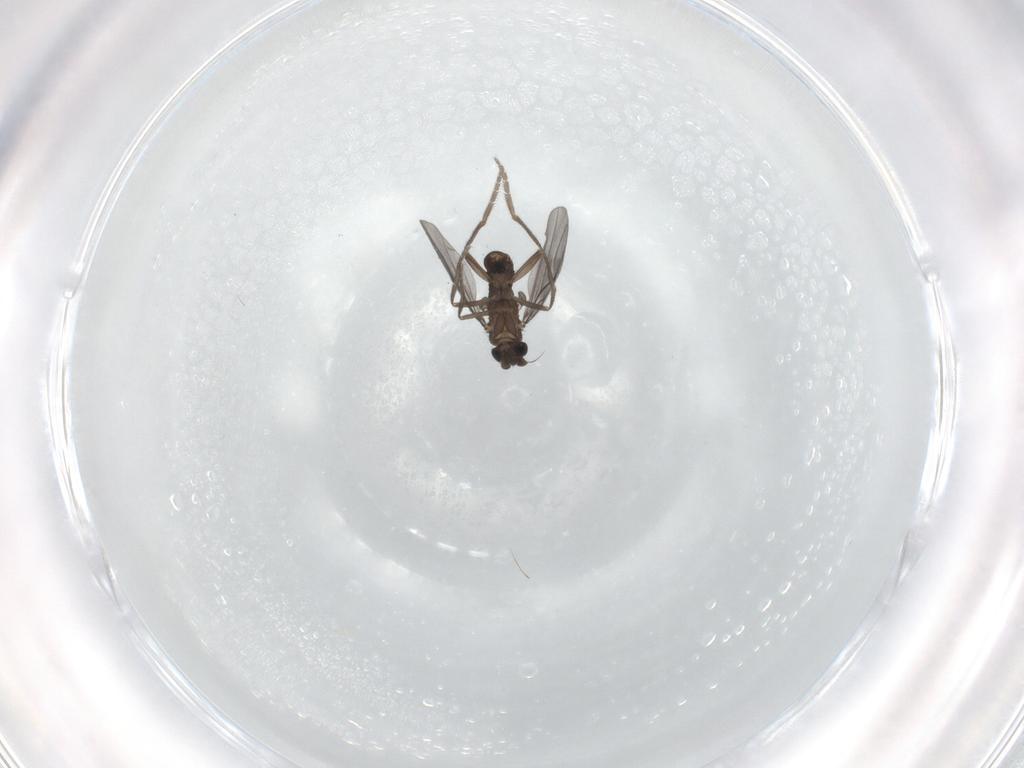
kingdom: Animalia
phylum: Arthropoda
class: Insecta
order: Diptera
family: Phoridae
